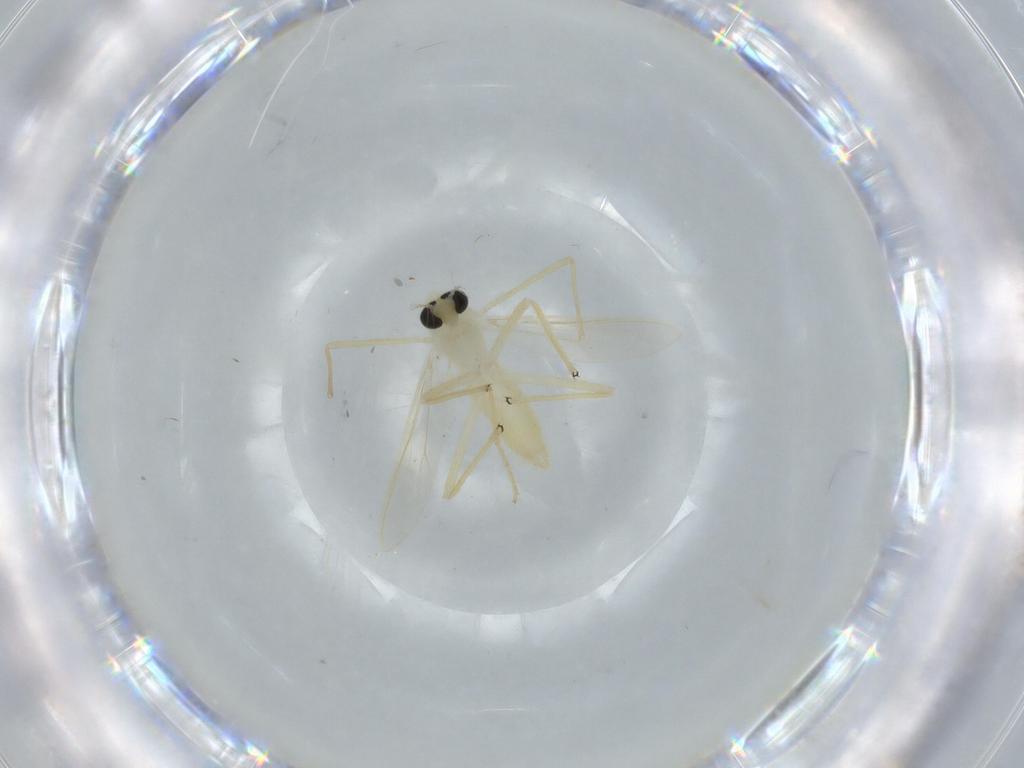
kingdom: Animalia
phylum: Arthropoda
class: Insecta
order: Diptera
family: Chironomidae
